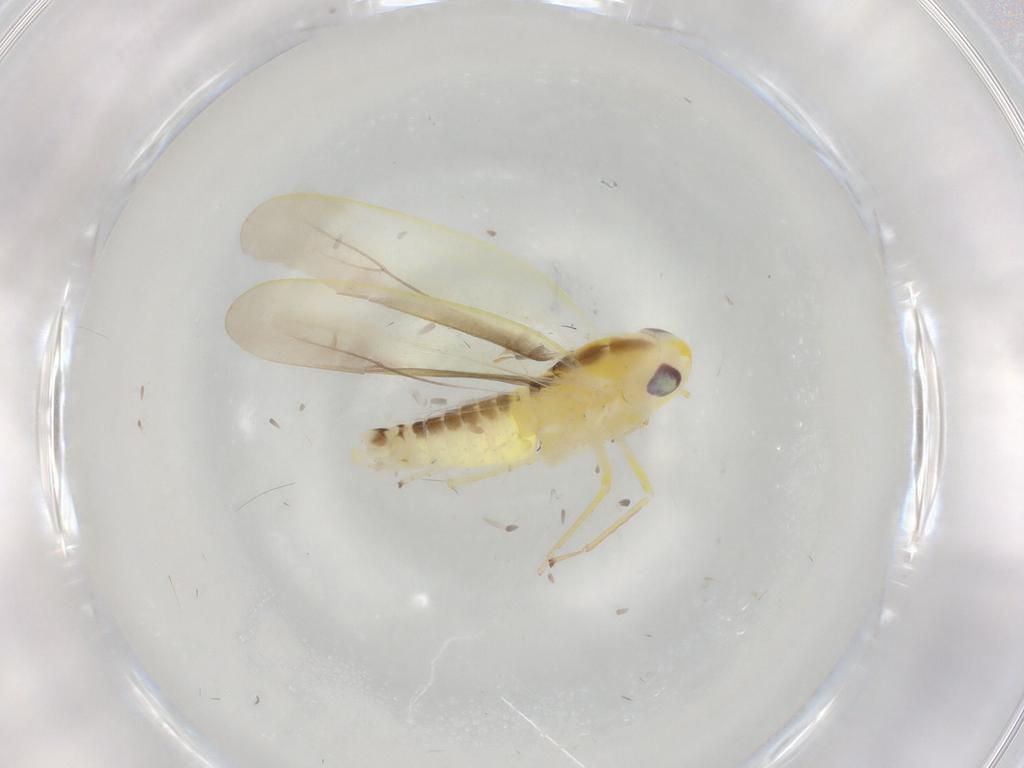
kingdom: Animalia
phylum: Arthropoda
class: Insecta
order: Hemiptera
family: Cicadellidae
